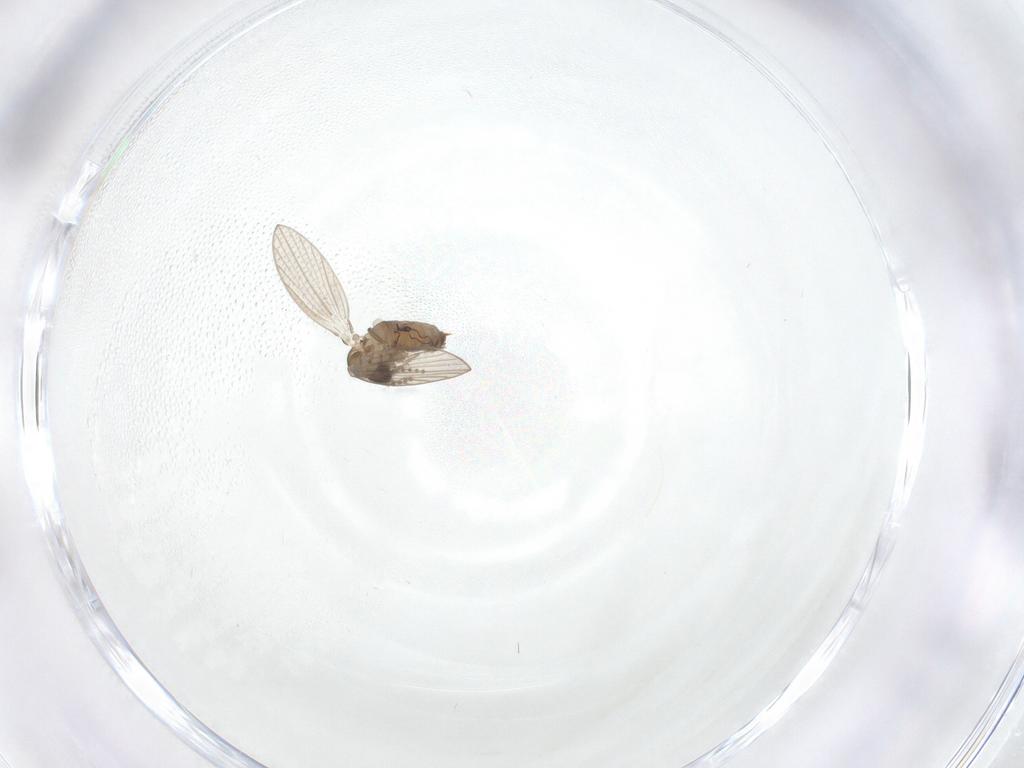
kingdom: Animalia
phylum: Arthropoda
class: Insecta
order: Diptera
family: Psychodidae
